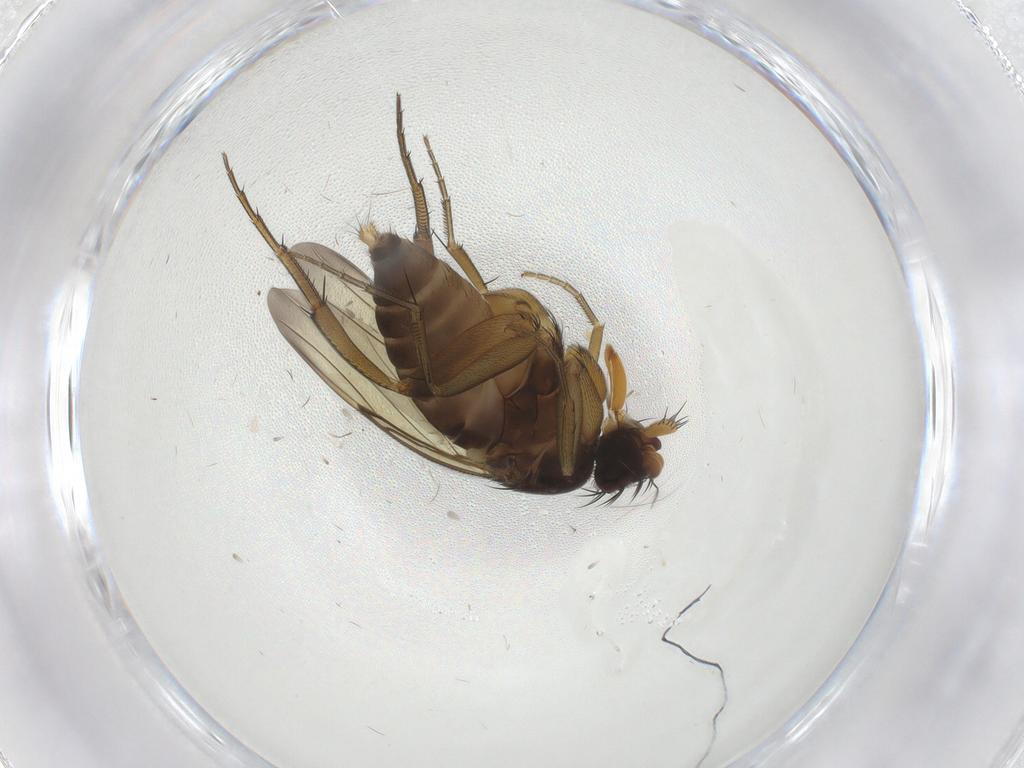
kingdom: Animalia
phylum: Arthropoda
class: Insecta
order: Diptera
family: Phoridae
